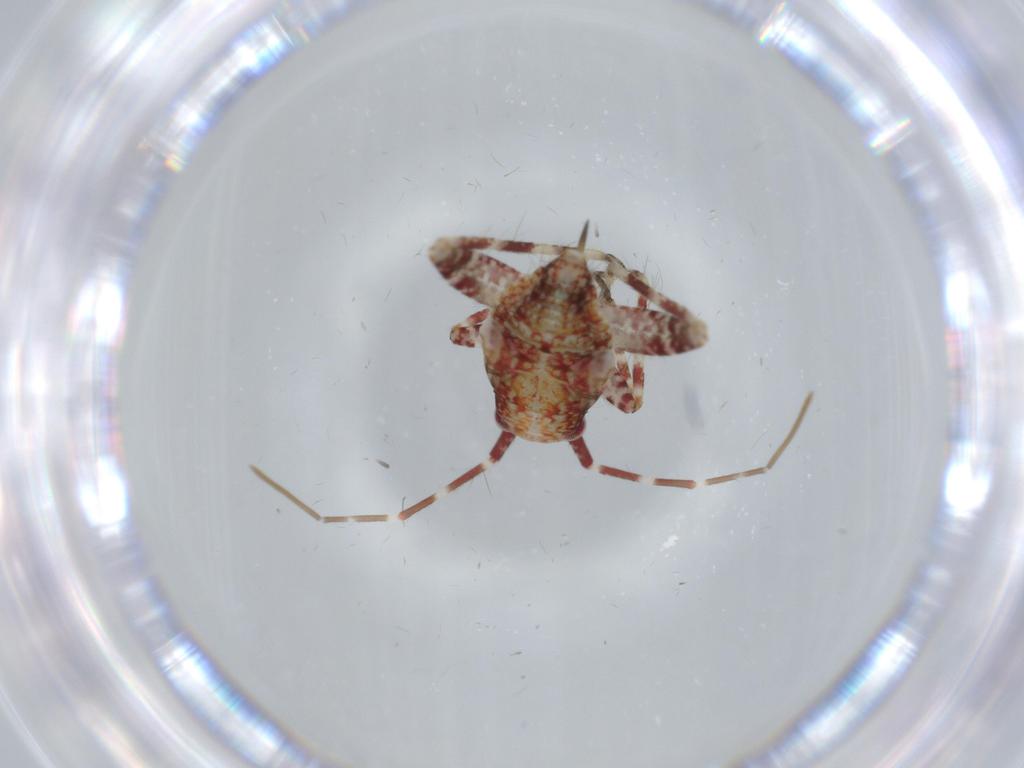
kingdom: Animalia
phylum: Arthropoda
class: Insecta
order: Hemiptera
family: Miridae
